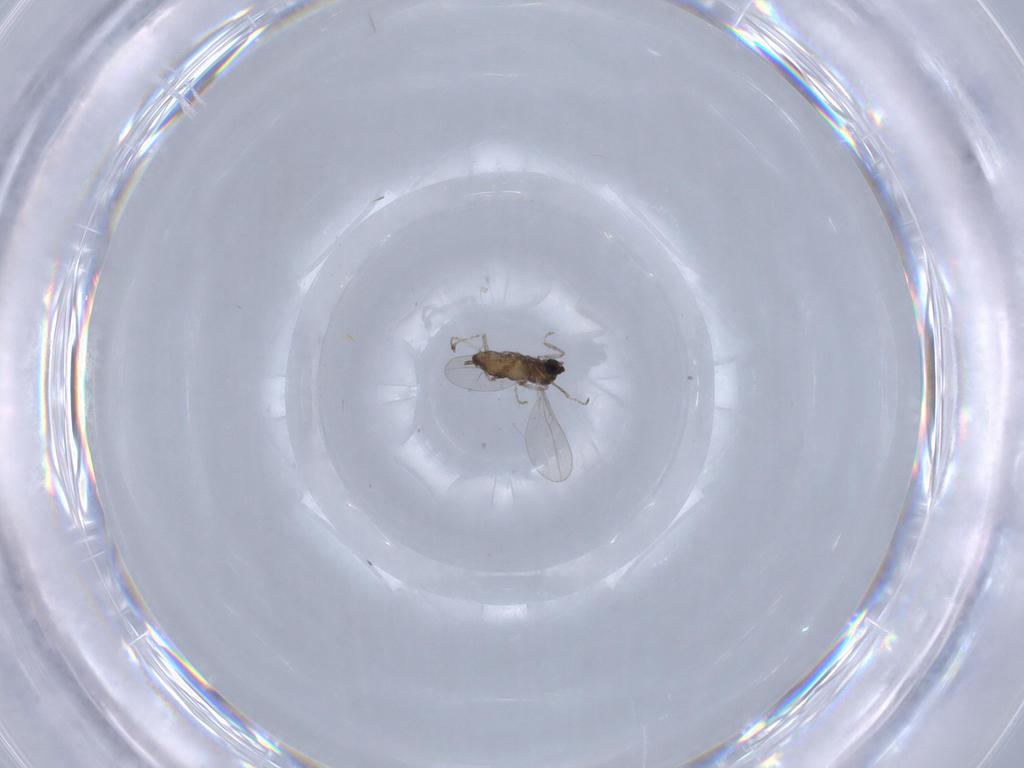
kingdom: Animalia
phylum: Arthropoda
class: Insecta
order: Diptera
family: Cecidomyiidae
